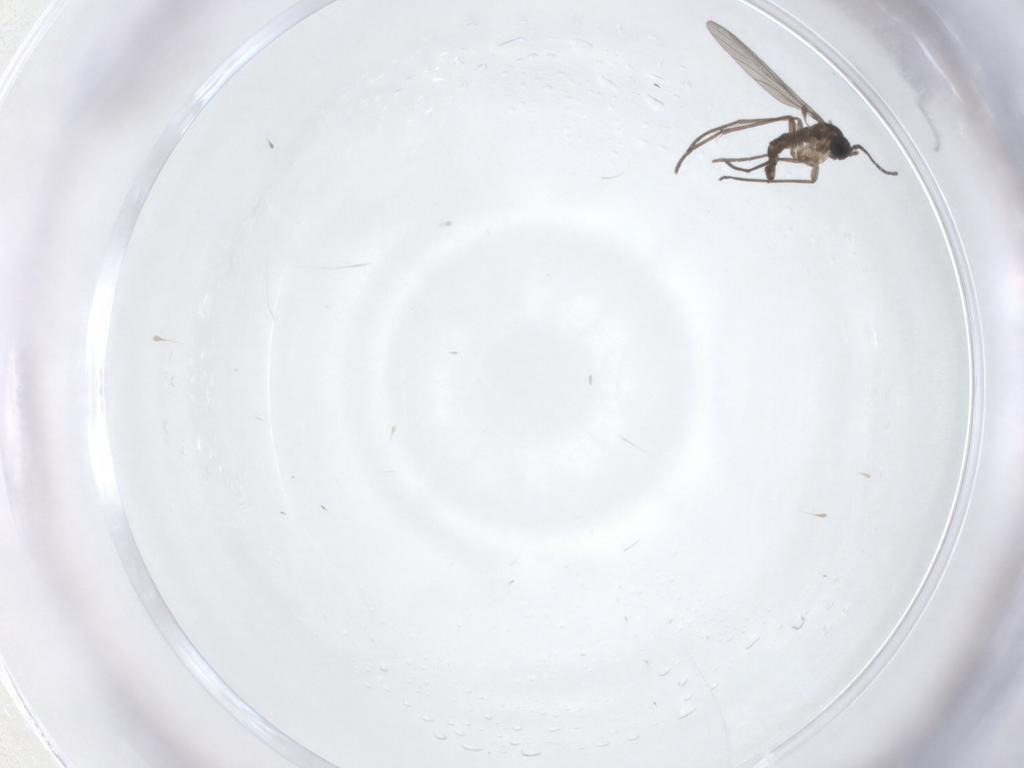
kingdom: Animalia
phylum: Arthropoda
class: Insecta
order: Diptera
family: Sciaridae
